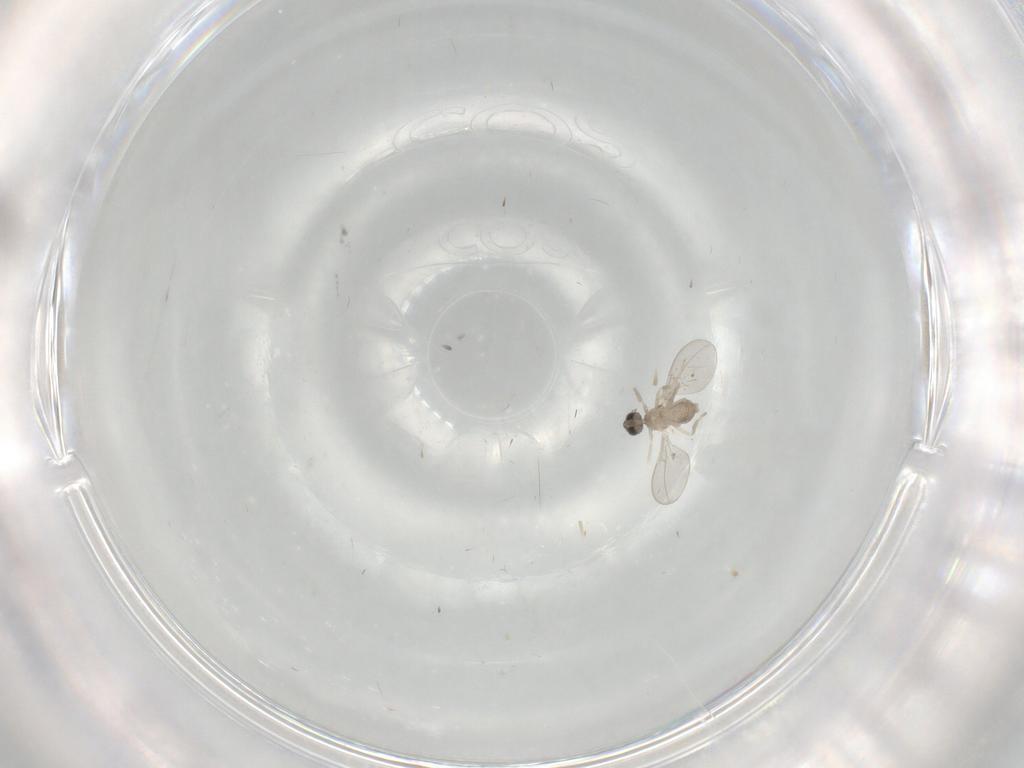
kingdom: Animalia
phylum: Arthropoda
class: Insecta
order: Diptera
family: Cecidomyiidae
